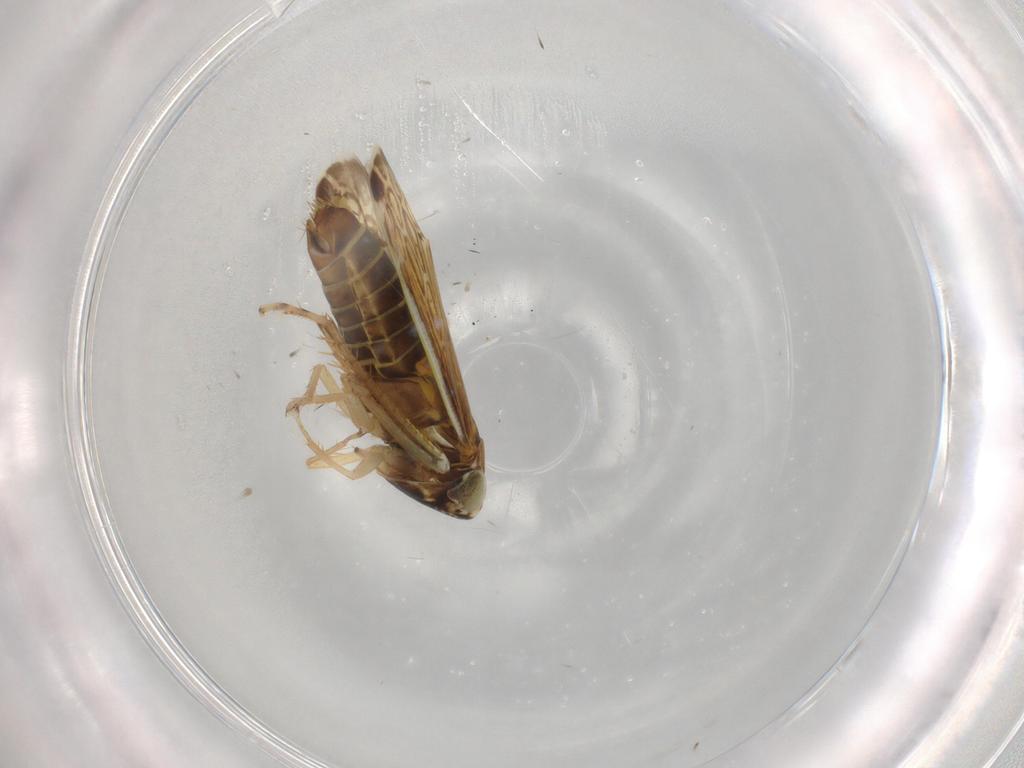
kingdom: Animalia
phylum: Arthropoda
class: Insecta
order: Hemiptera
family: Cicadellidae
